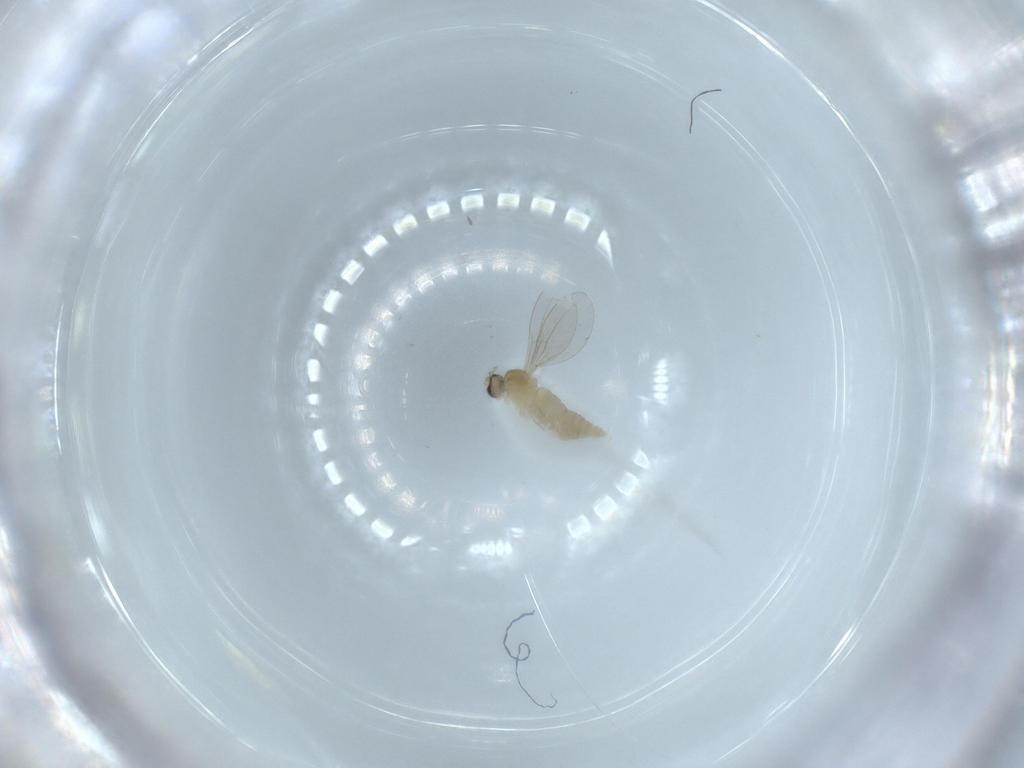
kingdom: Animalia
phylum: Arthropoda
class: Insecta
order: Diptera
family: Cecidomyiidae
